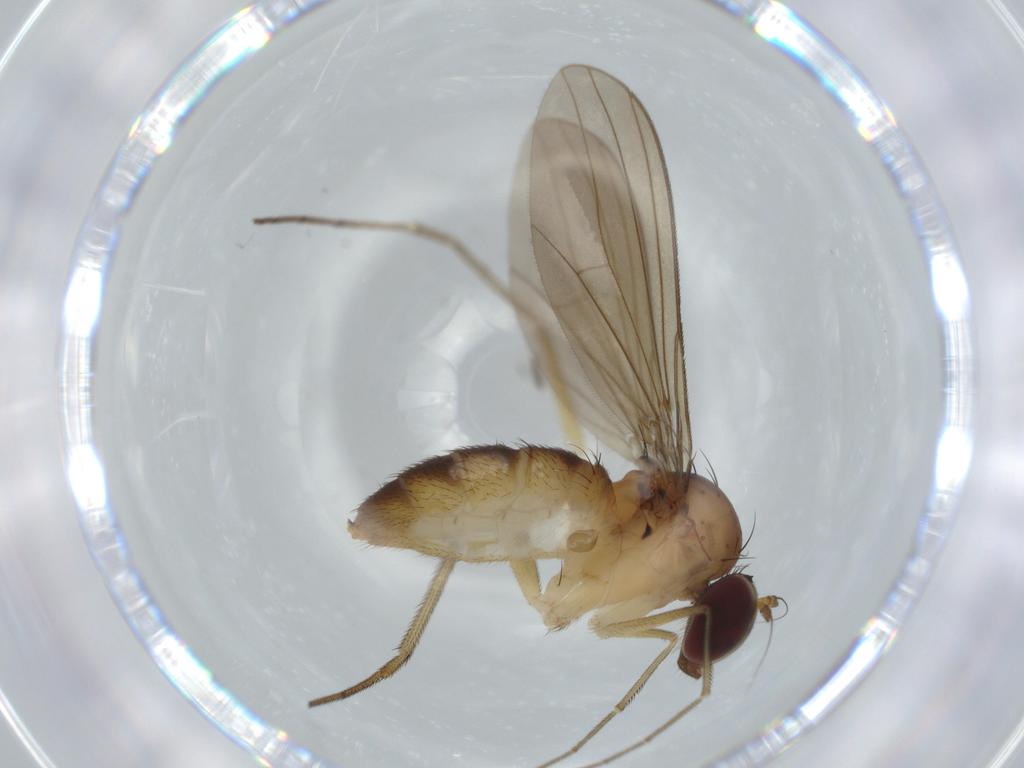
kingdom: Animalia
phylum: Arthropoda
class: Insecta
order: Diptera
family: Dolichopodidae
